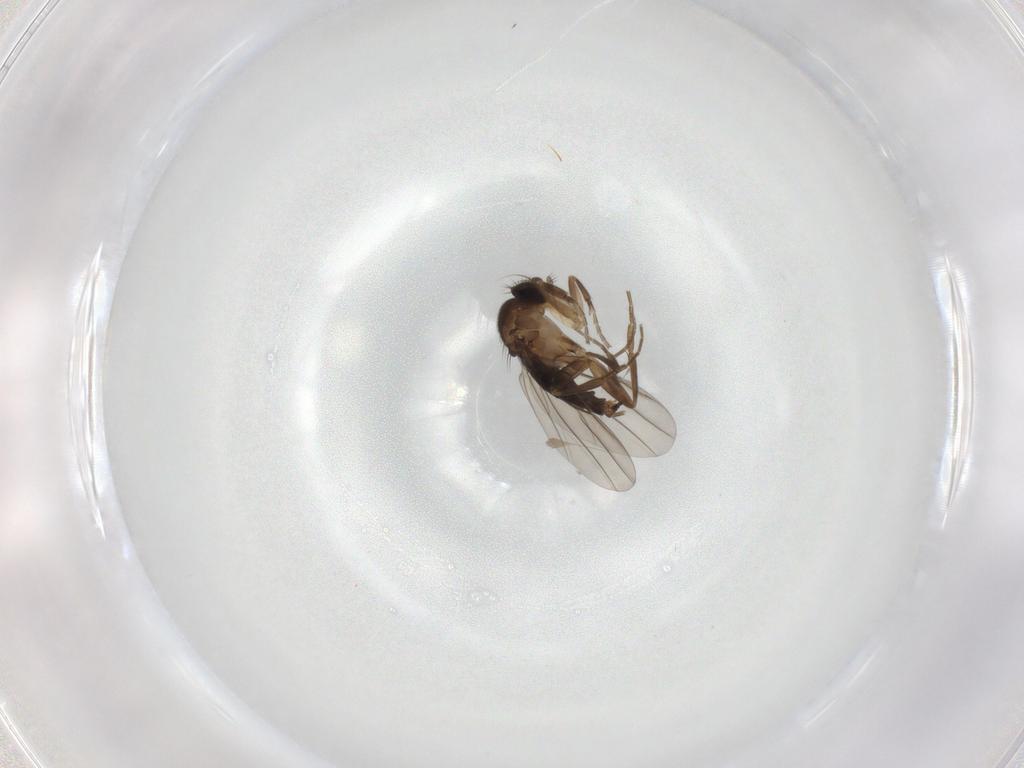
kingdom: Animalia
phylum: Arthropoda
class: Insecta
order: Diptera
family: Phoridae
